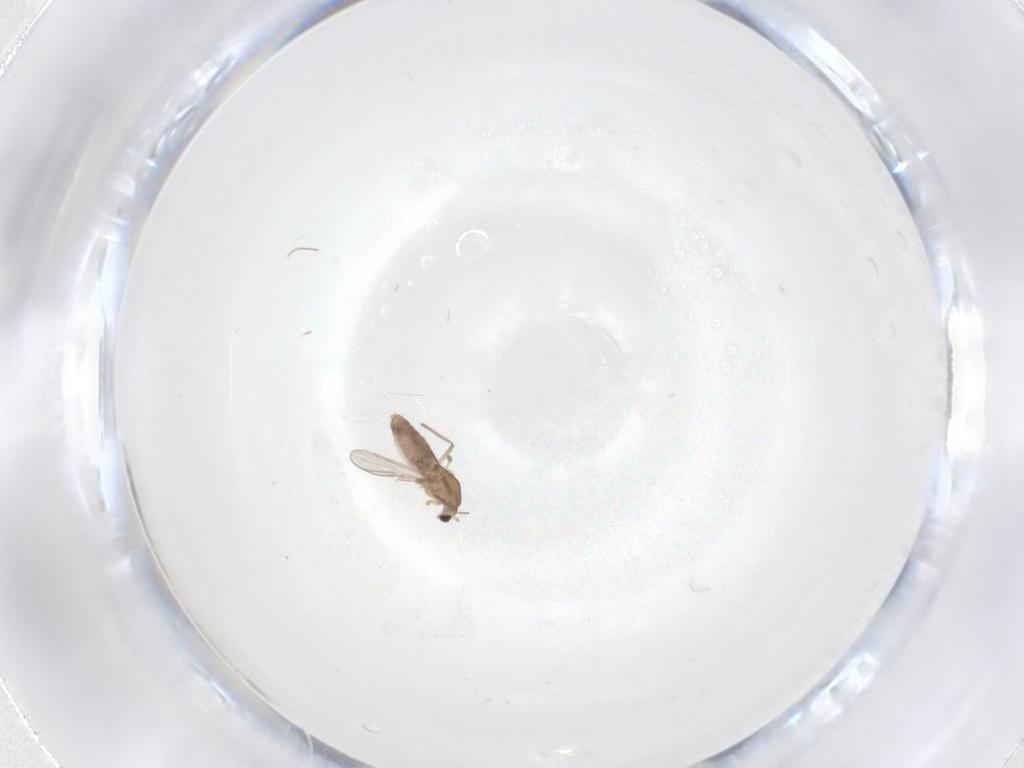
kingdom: Animalia
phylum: Arthropoda
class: Insecta
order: Diptera
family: Chironomidae
